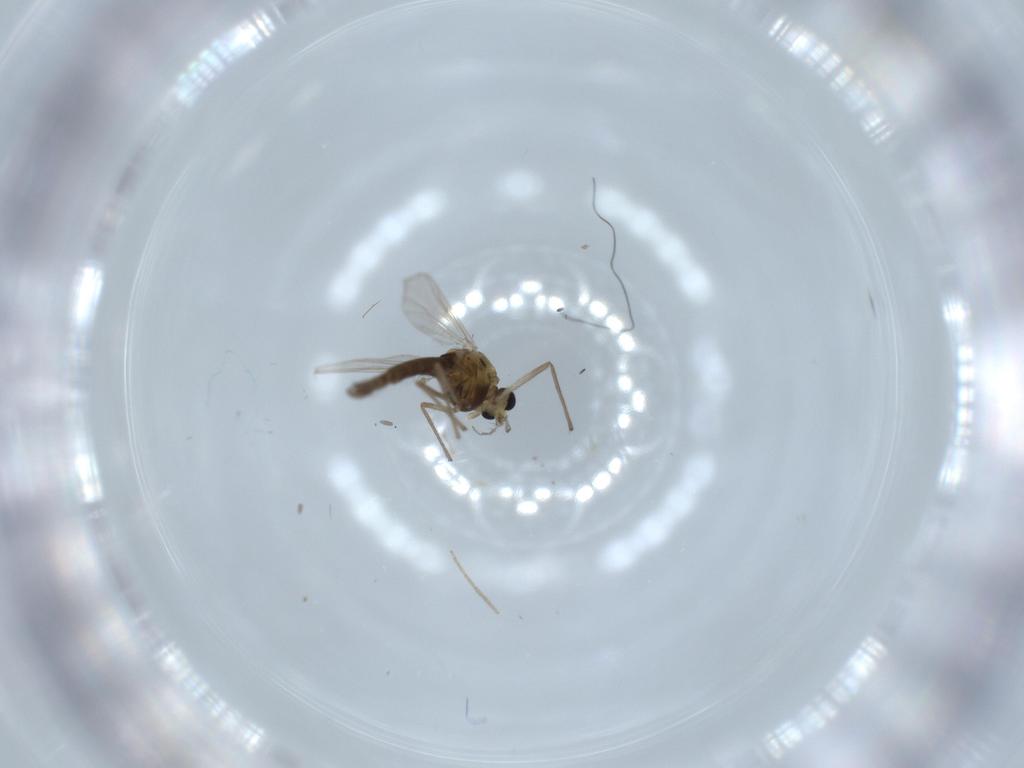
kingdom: Animalia
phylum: Arthropoda
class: Insecta
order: Diptera
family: Chironomidae
